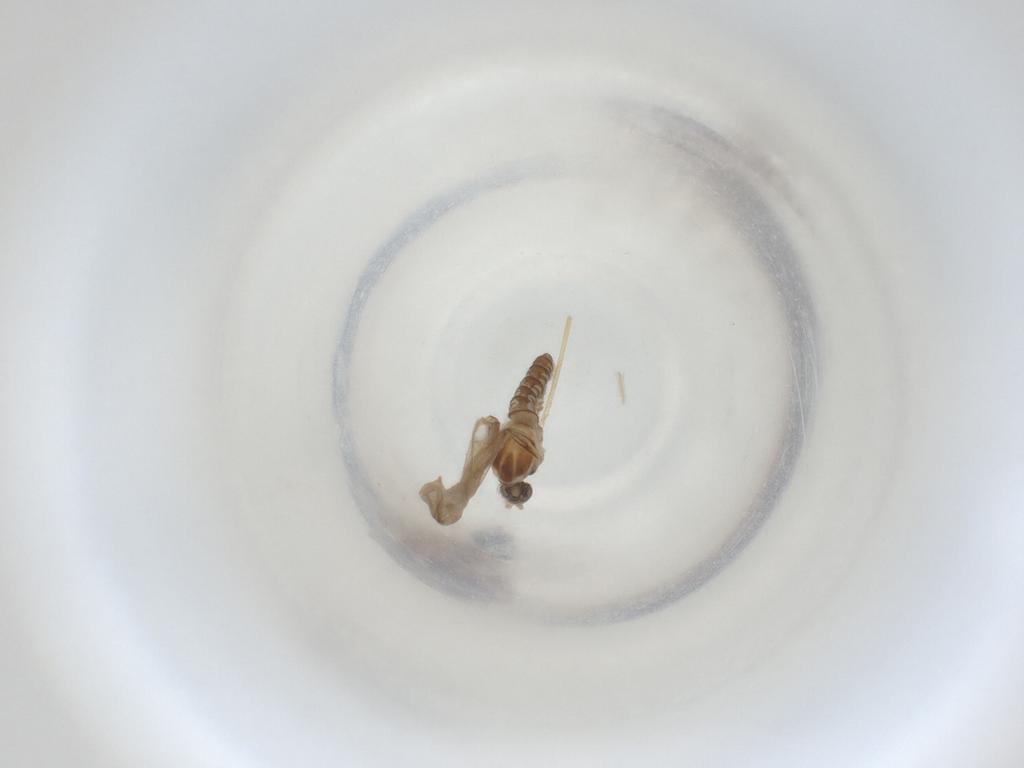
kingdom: Animalia
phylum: Arthropoda
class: Insecta
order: Diptera
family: Cecidomyiidae
